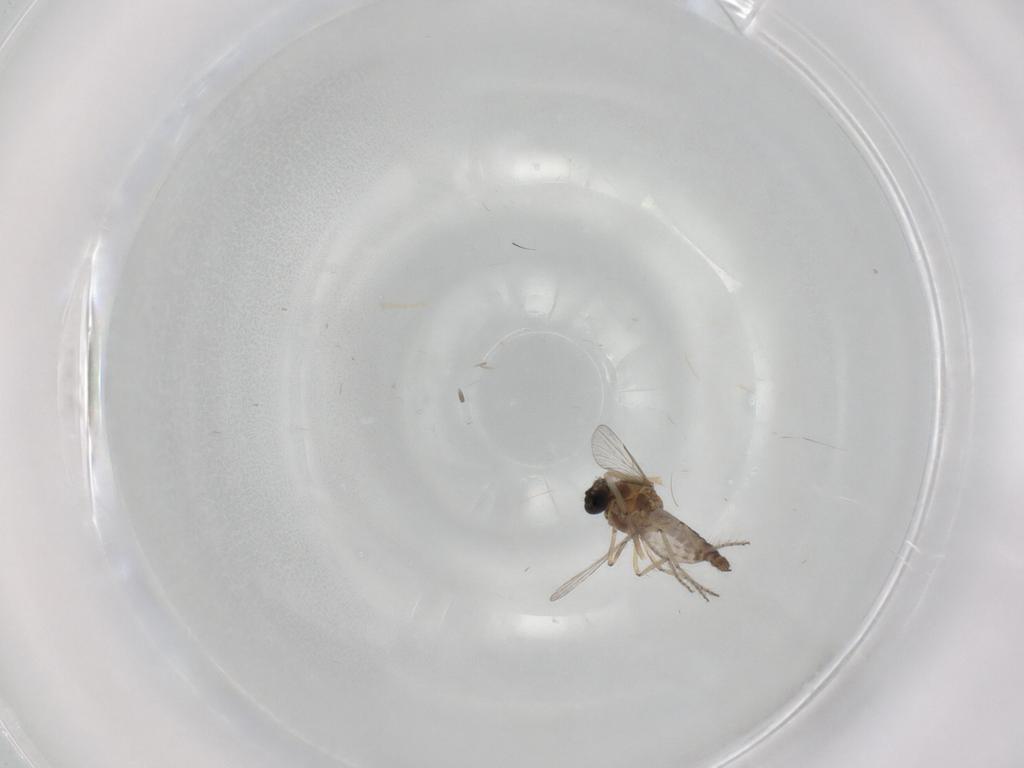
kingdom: Animalia
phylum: Arthropoda
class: Insecta
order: Diptera
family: Ceratopogonidae
